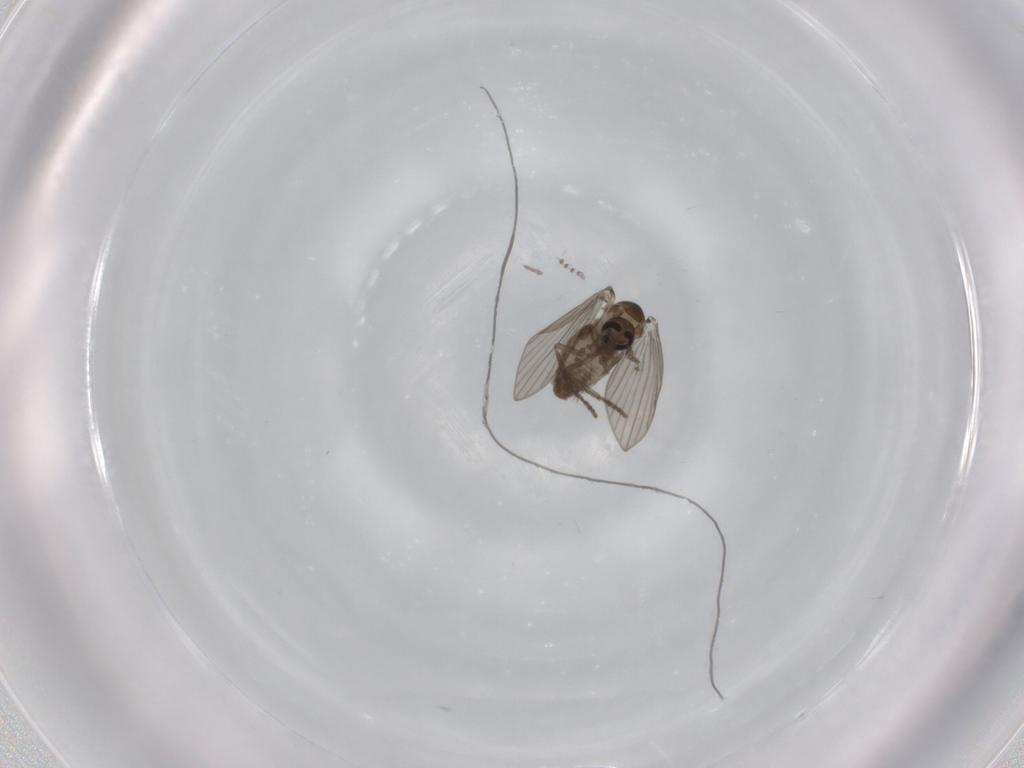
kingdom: Animalia
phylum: Arthropoda
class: Insecta
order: Diptera
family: Psychodidae
